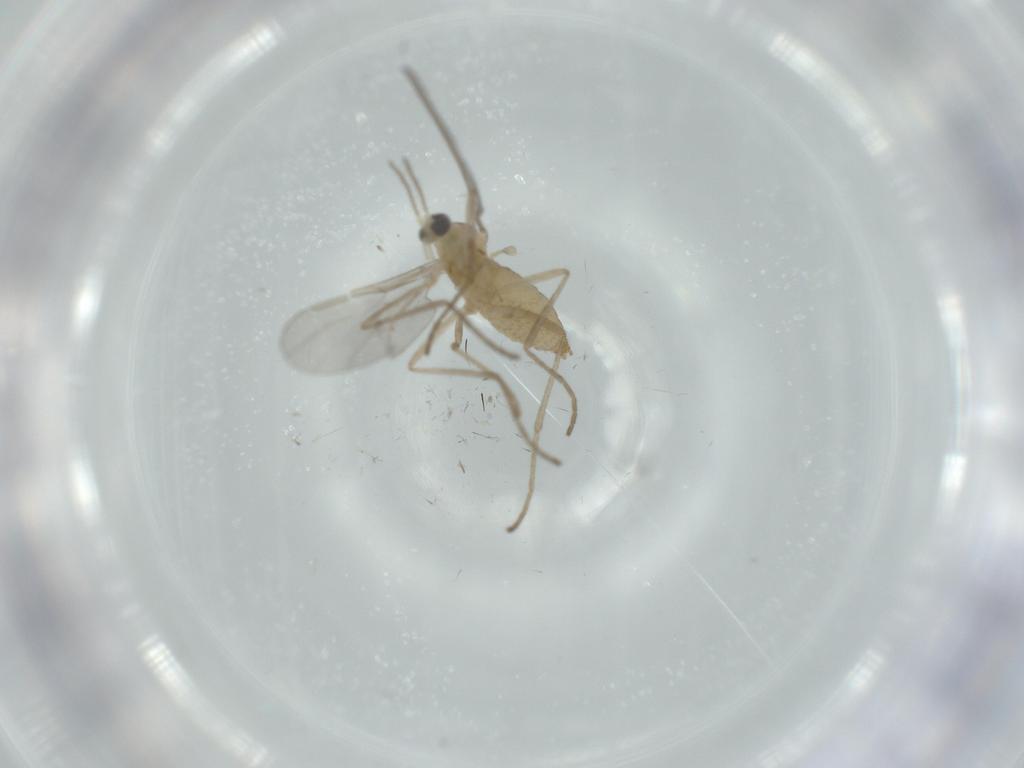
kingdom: Animalia
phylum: Arthropoda
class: Insecta
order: Diptera
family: Cecidomyiidae
